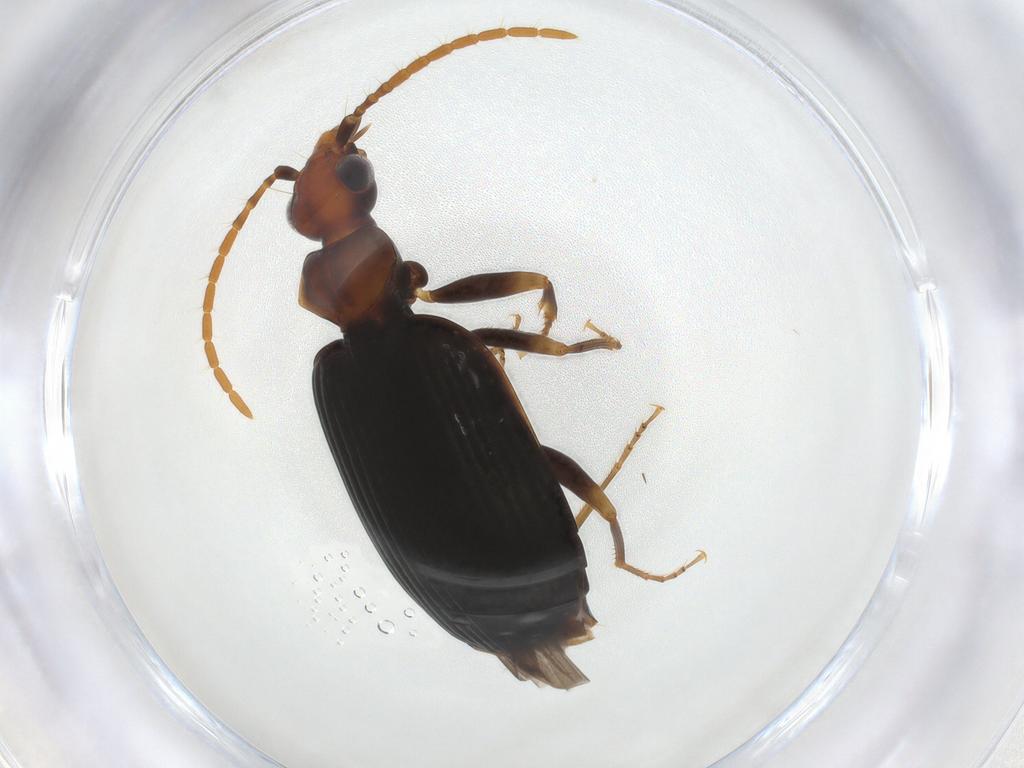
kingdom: Animalia
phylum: Arthropoda
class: Insecta
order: Coleoptera
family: Carabidae
